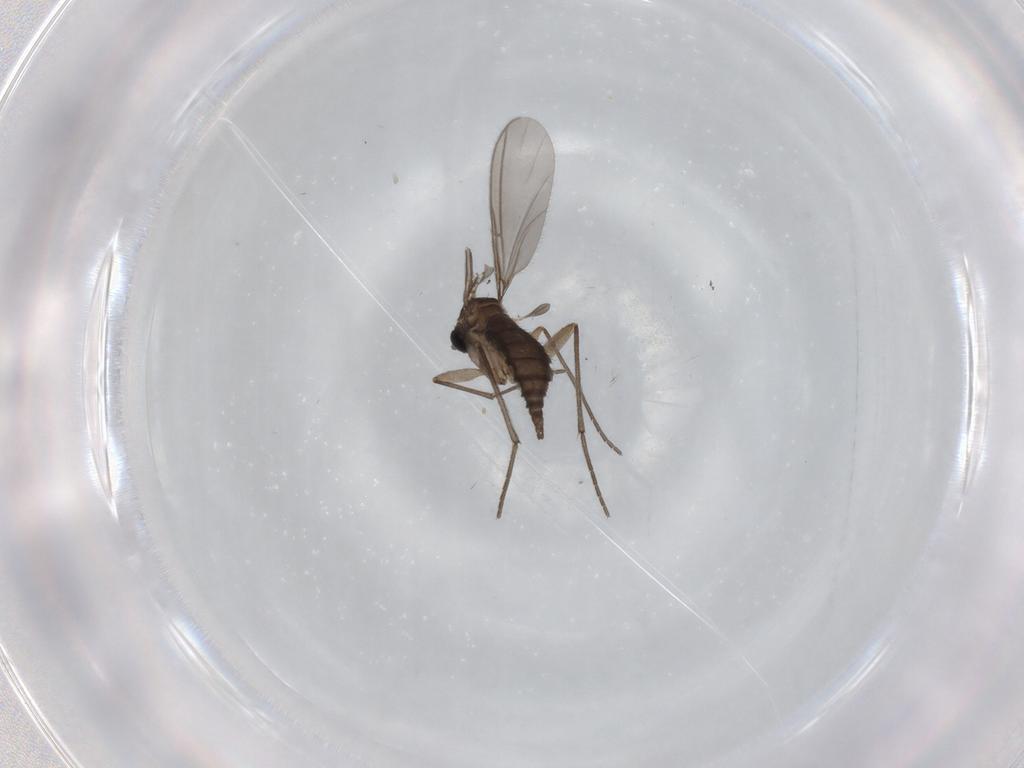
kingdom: Animalia
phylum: Arthropoda
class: Insecta
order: Diptera
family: Sciaridae
